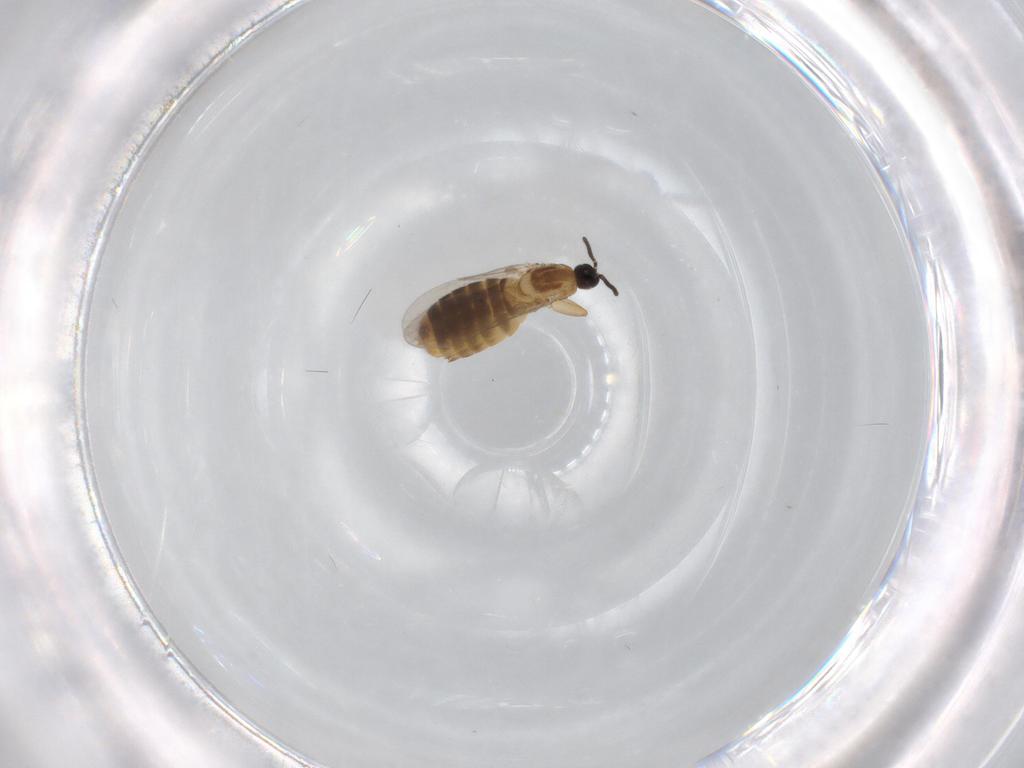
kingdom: Animalia
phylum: Arthropoda
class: Insecta
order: Diptera
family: Scatopsidae
